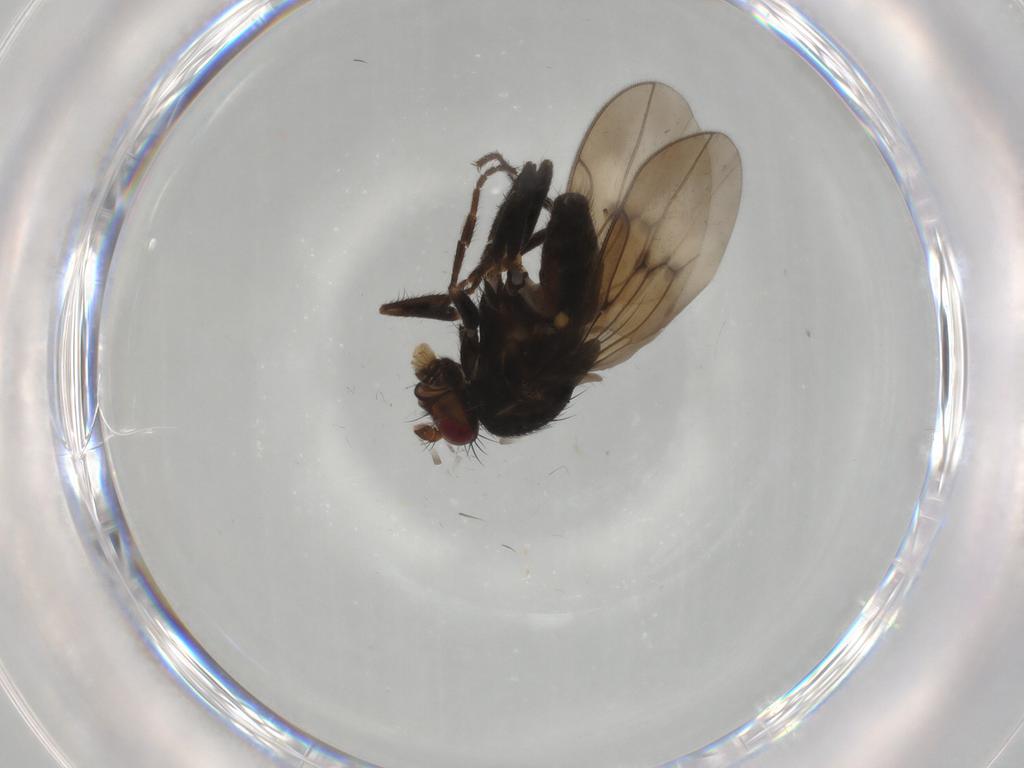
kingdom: Animalia
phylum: Arthropoda
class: Insecta
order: Diptera
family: Sphaeroceridae
